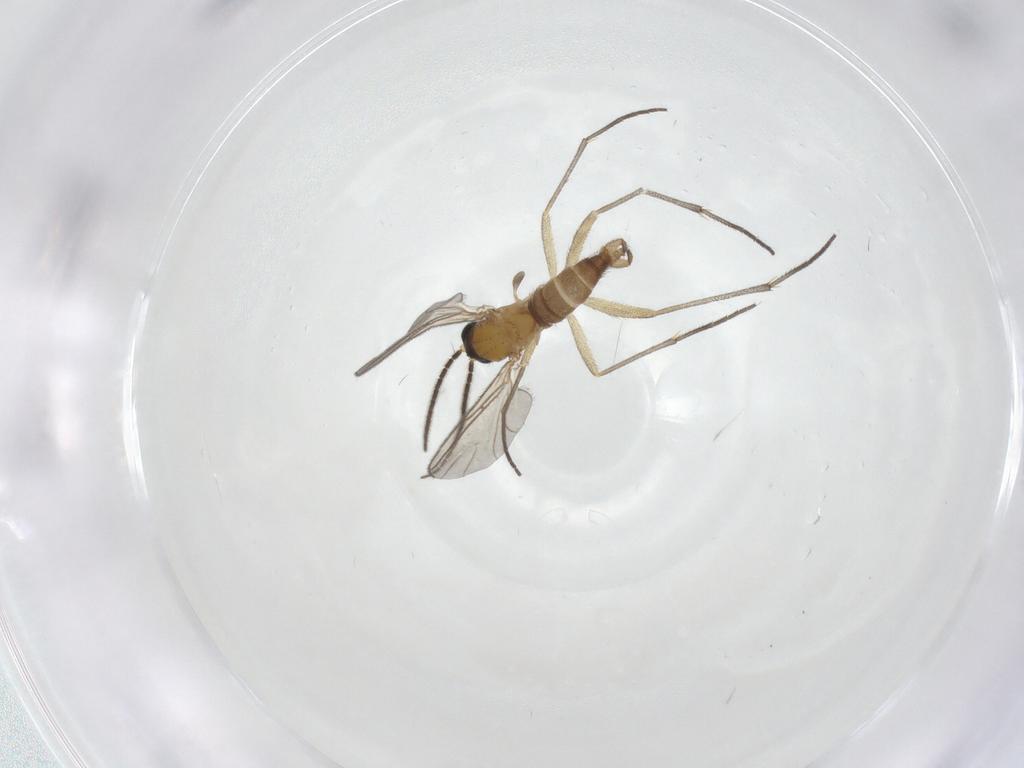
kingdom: Animalia
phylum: Arthropoda
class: Insecta
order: Diptera
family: Sciaridae
